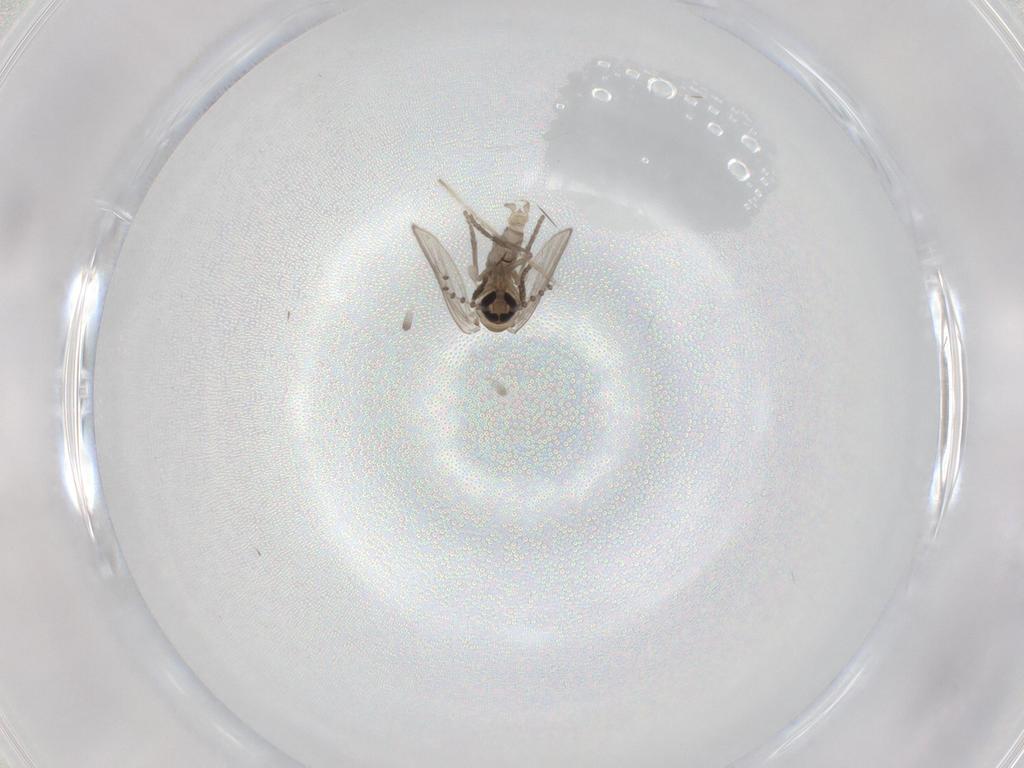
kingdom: Animalia
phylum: Arthropoda
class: Insecta
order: Diptera
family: Psychodidae
